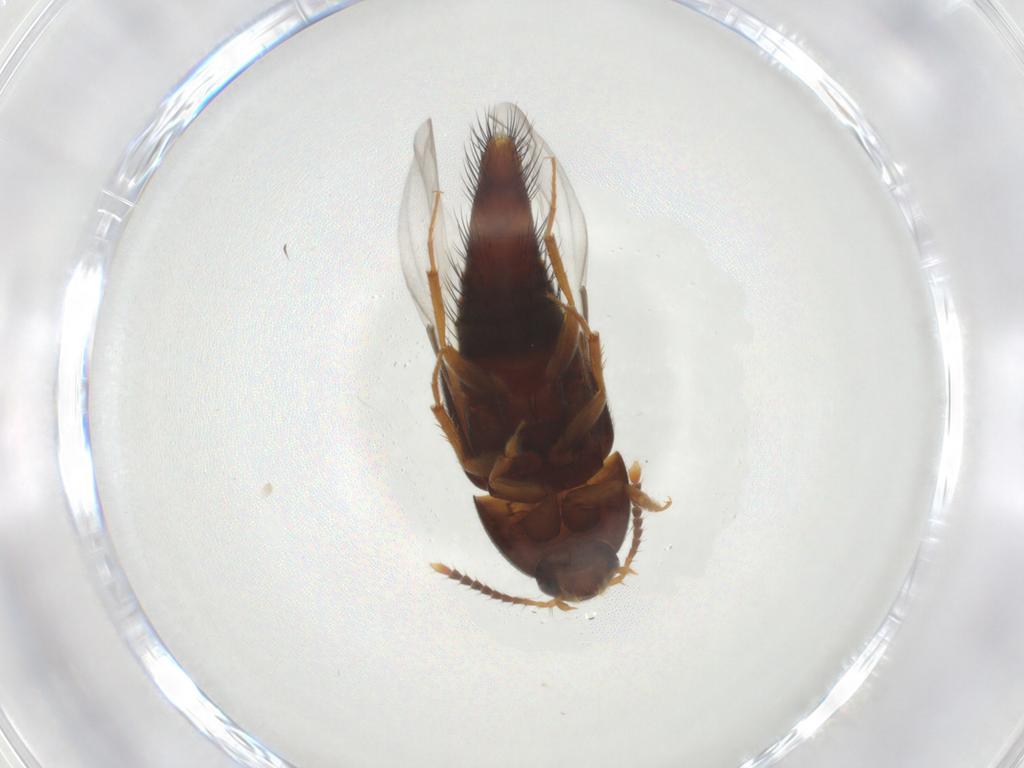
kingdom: Animalia
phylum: Arthropoda
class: Insecta
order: Coleoptera
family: Staphylinidae
